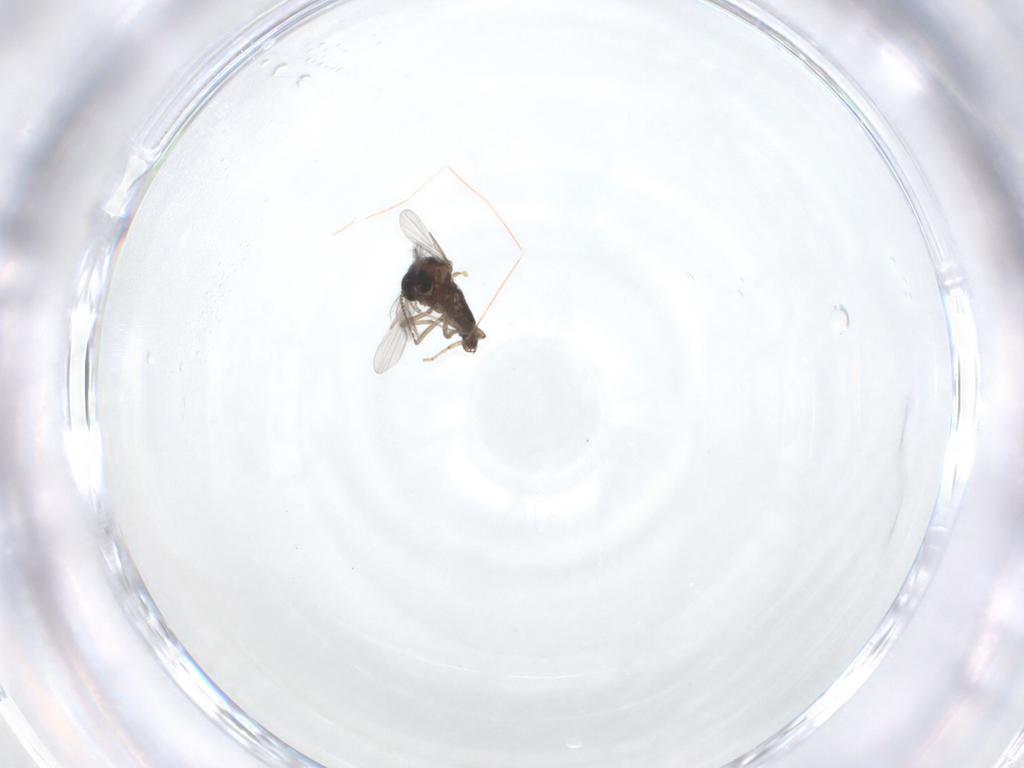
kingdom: Animalia
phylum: Arthropoda
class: Insecta
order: Diptera
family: Ceratopogonidae
